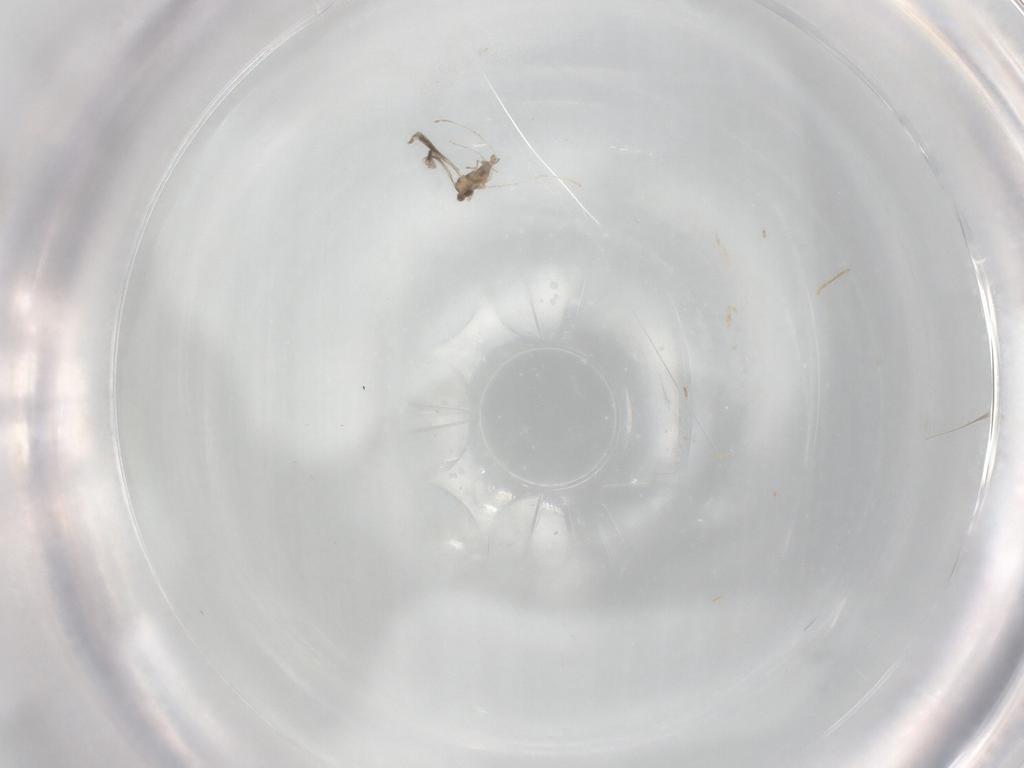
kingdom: Animalia
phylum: Arthropoda
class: Insecta
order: Diptera
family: Cecidomyiidae
